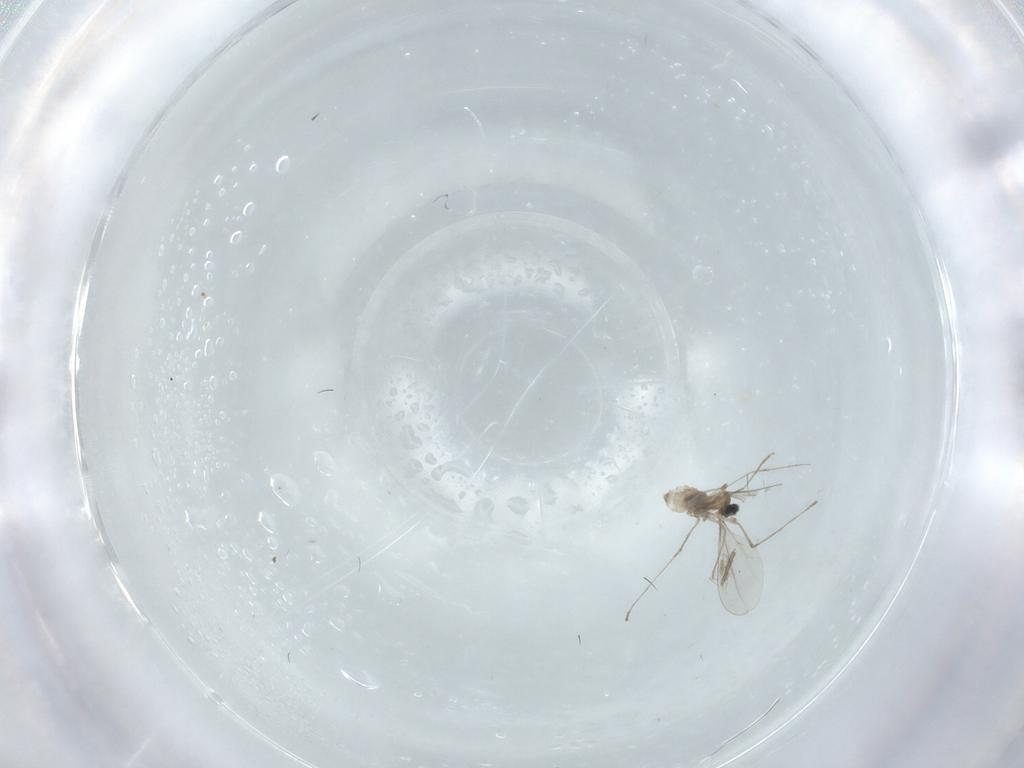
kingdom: Animalia
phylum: Arthropoda
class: Insecta
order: Diptera
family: Cecidomyiidae
